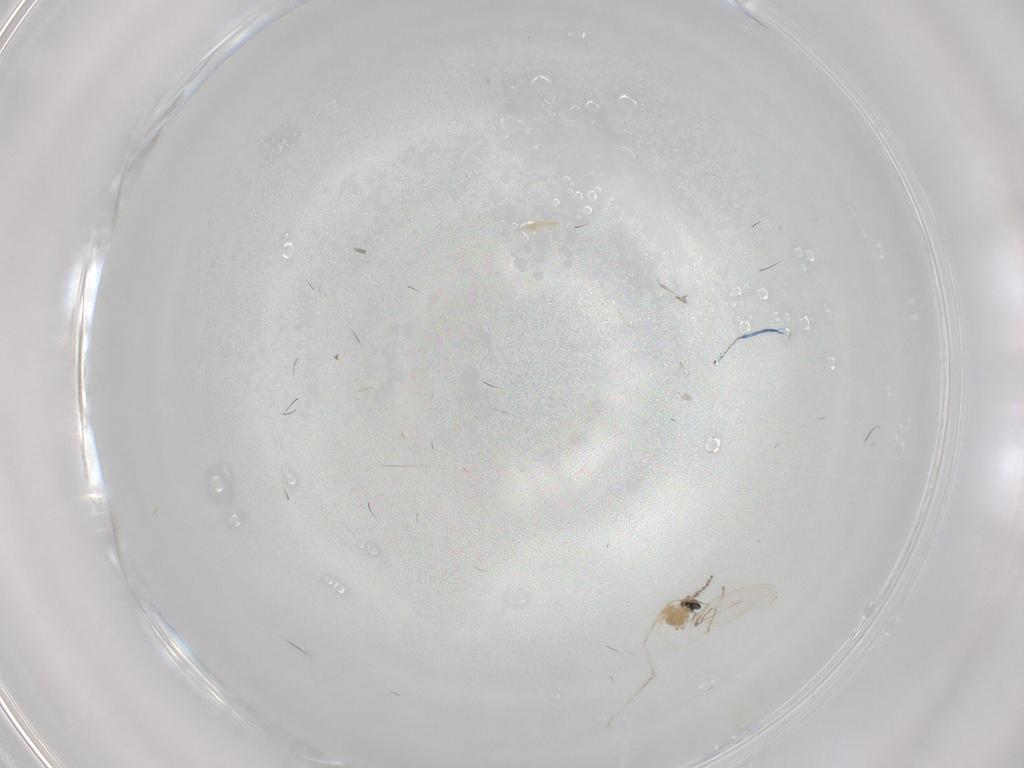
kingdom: Animalia
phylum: Arthropoda
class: Insecta
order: Diptera
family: Cecidomyiidae
